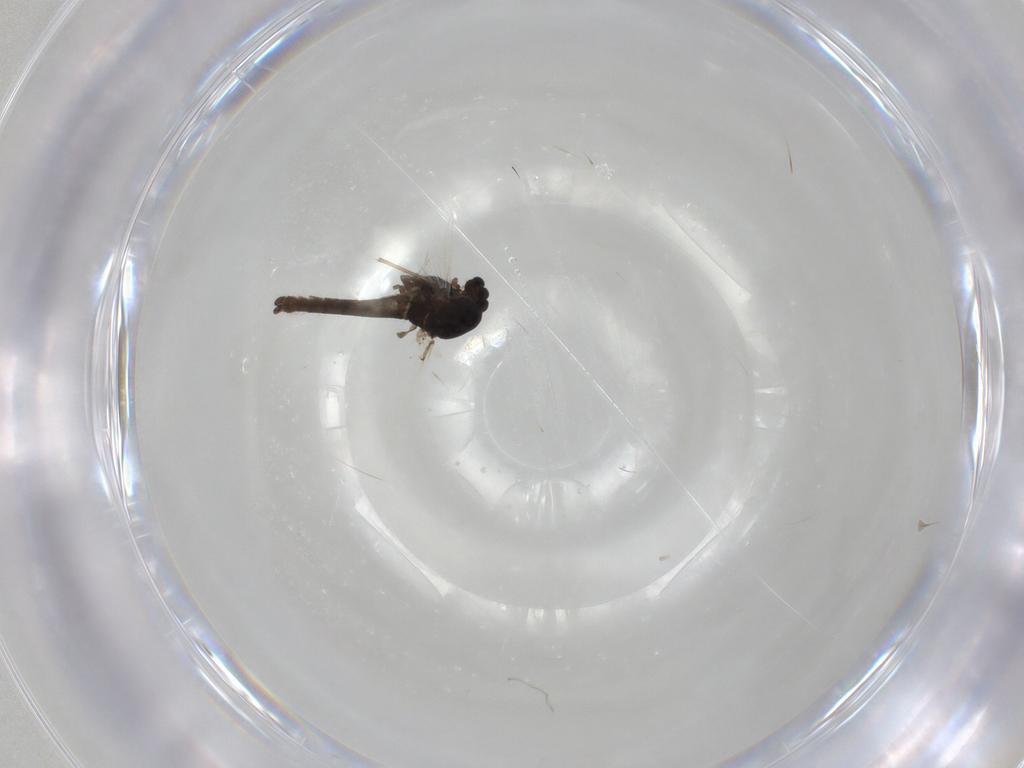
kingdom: Animalia
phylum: Arthropoda
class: Insecta
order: Diptera
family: Chironomidae
